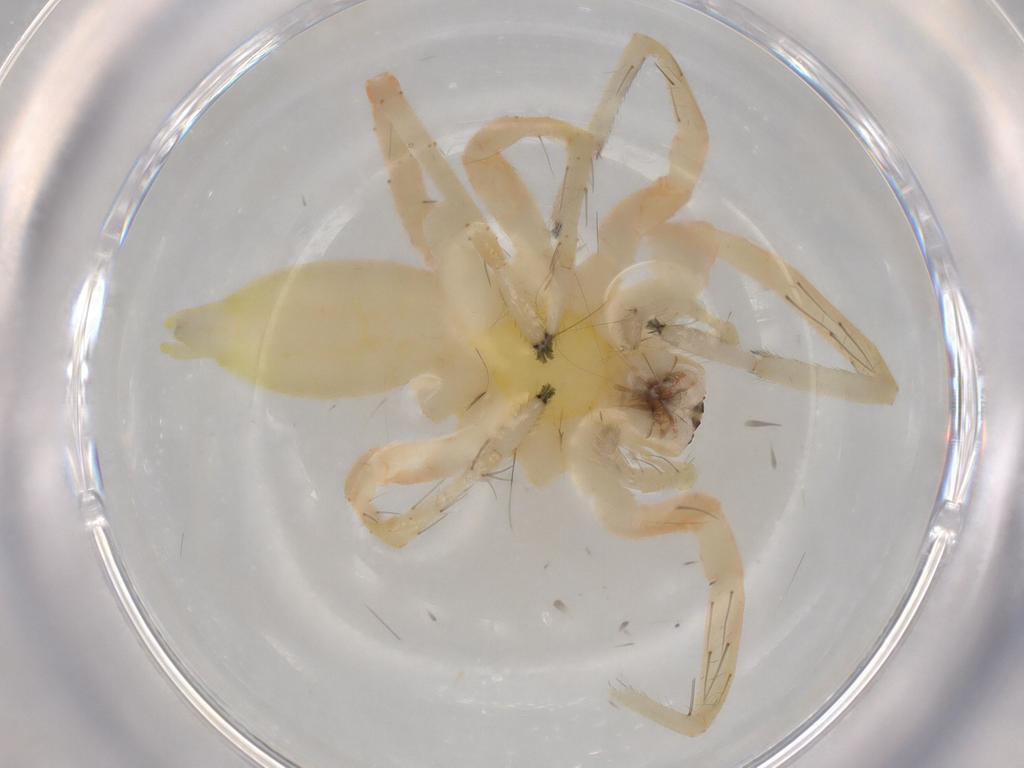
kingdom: Animalia
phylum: Arthropoda
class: Arachnida
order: Araneae
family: Anyphaenidae
